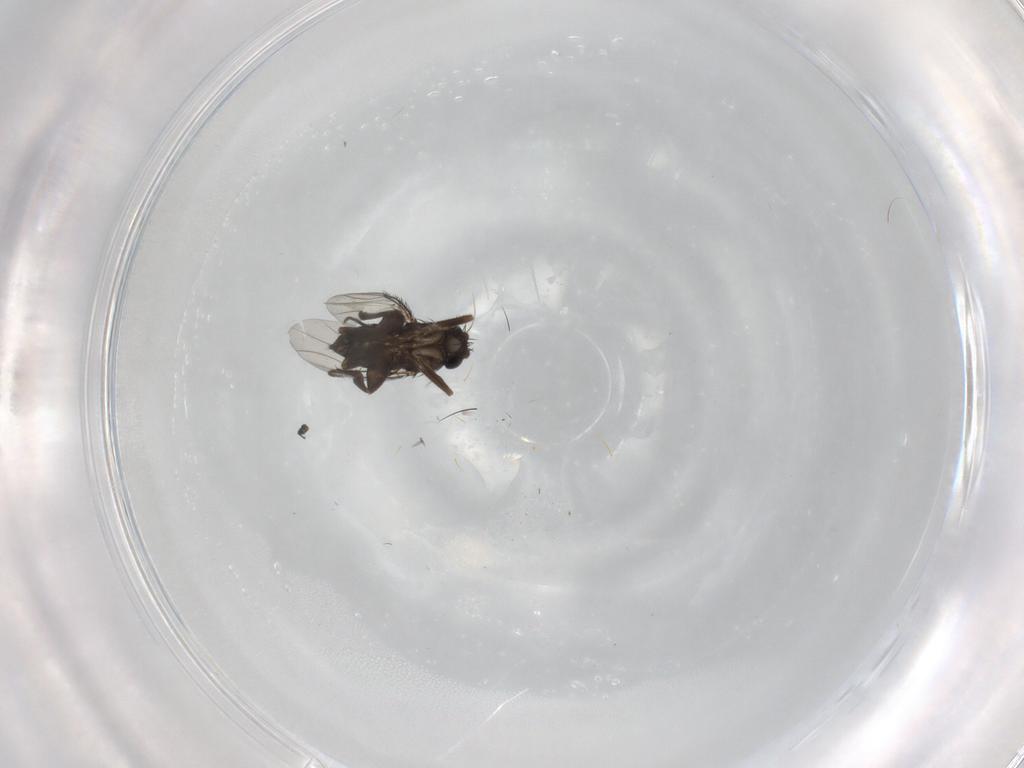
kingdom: Animalia
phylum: Arthropoda
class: Insecta
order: Diptera
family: Phoridae
